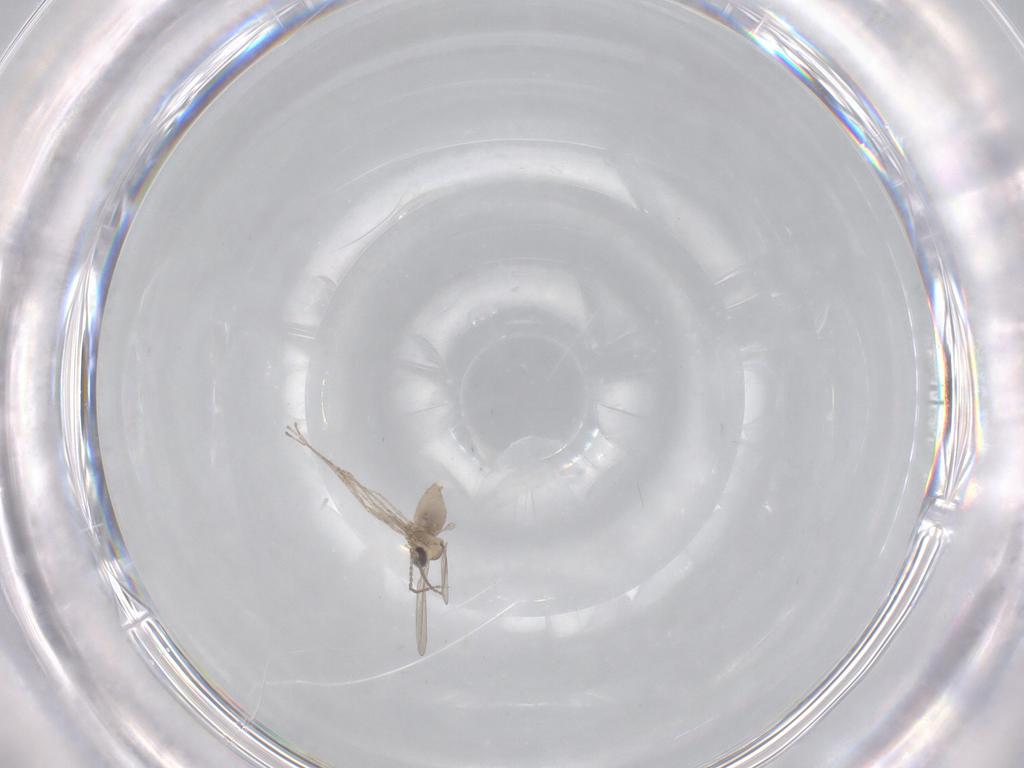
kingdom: Animalia
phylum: Arthropoda
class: Insecta
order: Diptera
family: Cecidomyiidae
